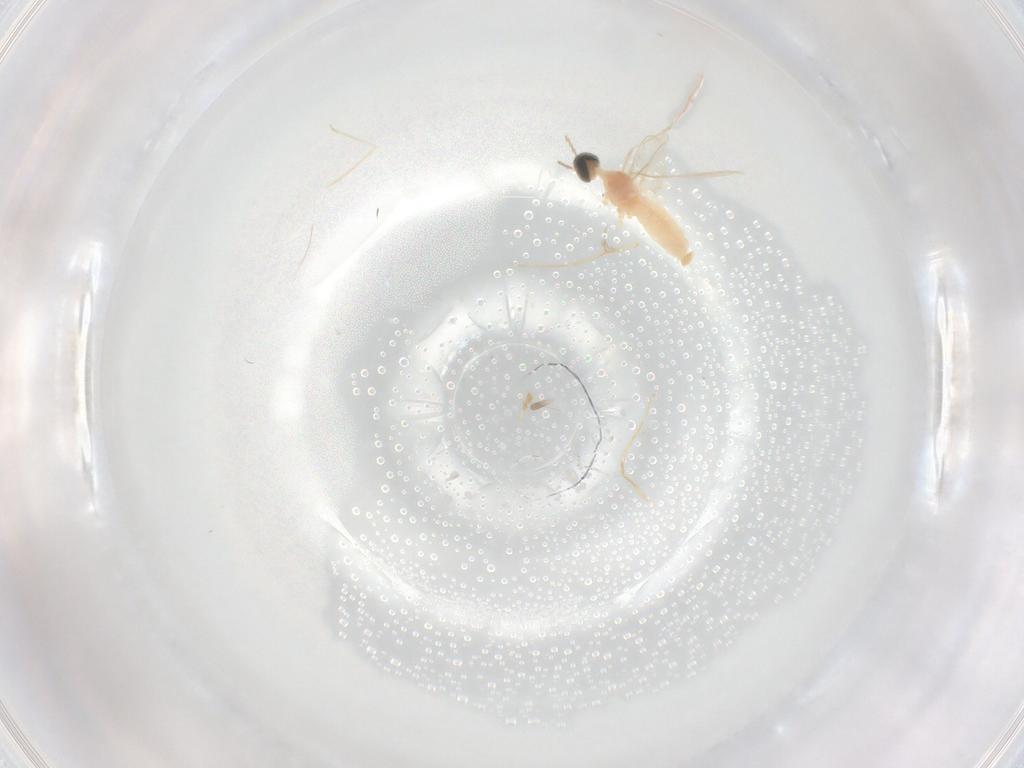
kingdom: Animalia
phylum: Arthropoda
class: Insecta
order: Diptera
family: Cecidomyiidae
